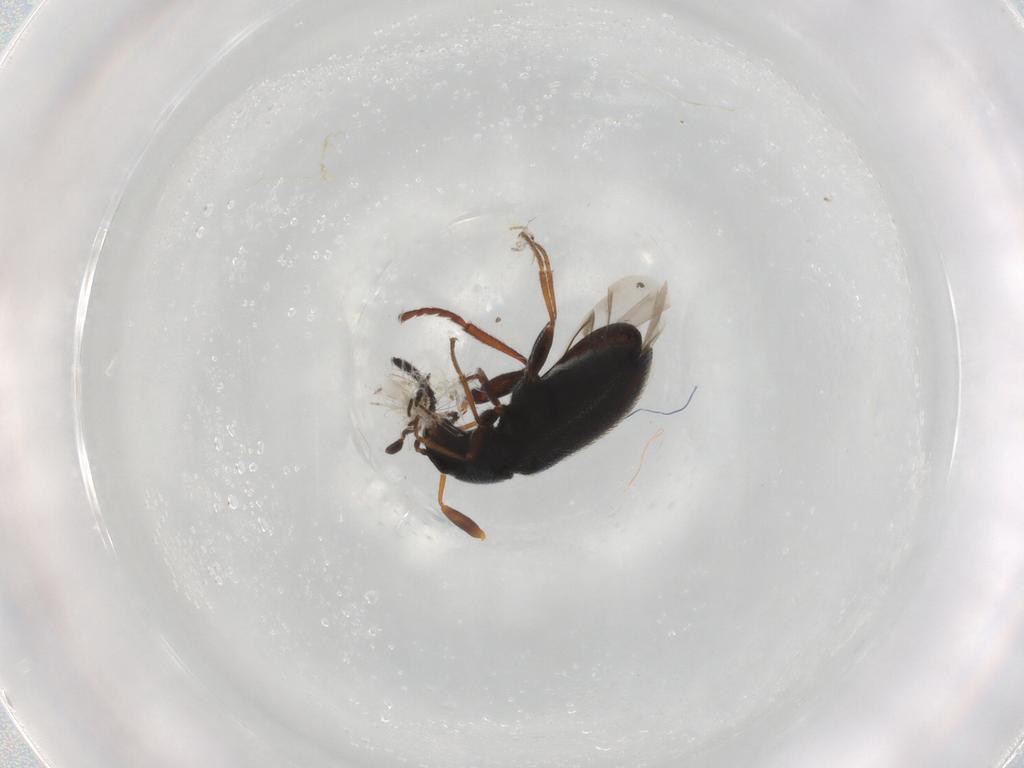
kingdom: Animalia
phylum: Arthropoda
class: Insecta
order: Coleoptera
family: Melyridae
